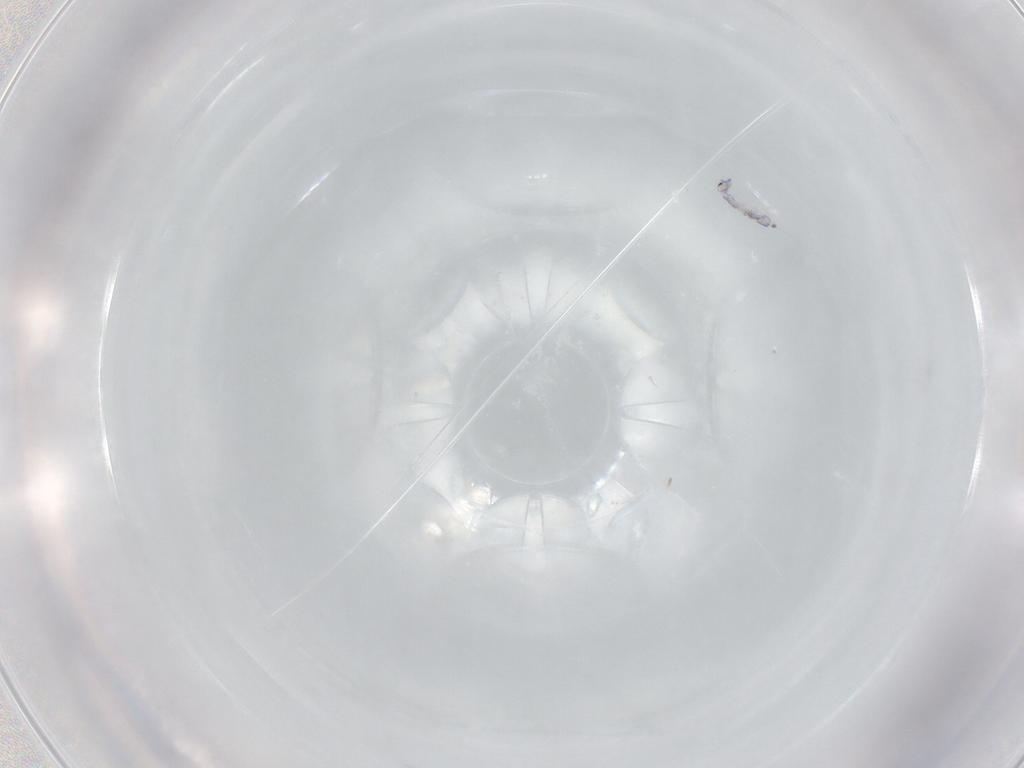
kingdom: Animalia
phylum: Arthropoda
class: Collembola
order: Entomobryomorpha
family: Entomobryidae
